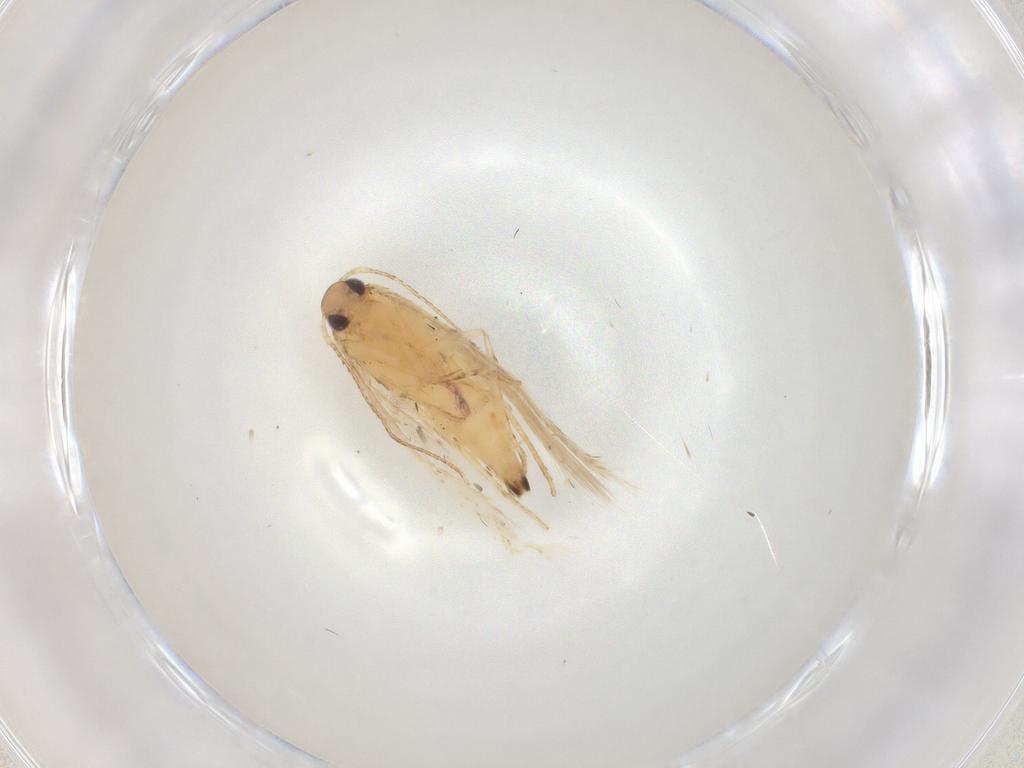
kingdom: Animalia
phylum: Arthropoda
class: Insecta
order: Lepidoptera
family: Gelechiidae
